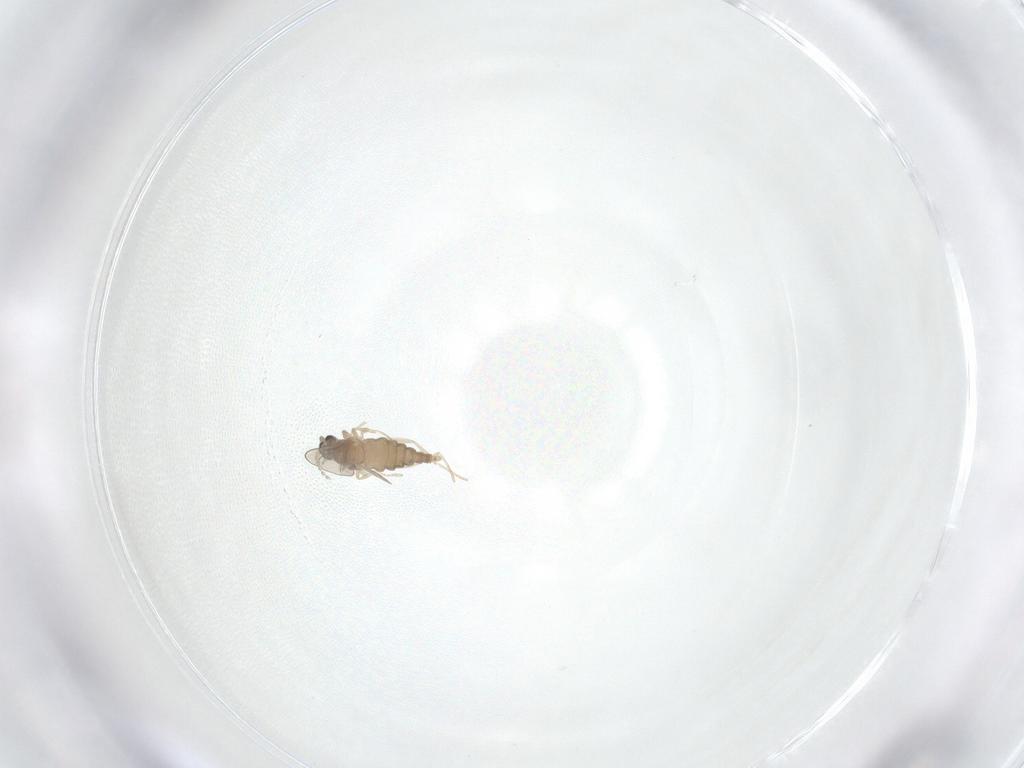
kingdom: Animalia
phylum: Arthropoda
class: Insecta
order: Diptera
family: Cecidomyiidae
